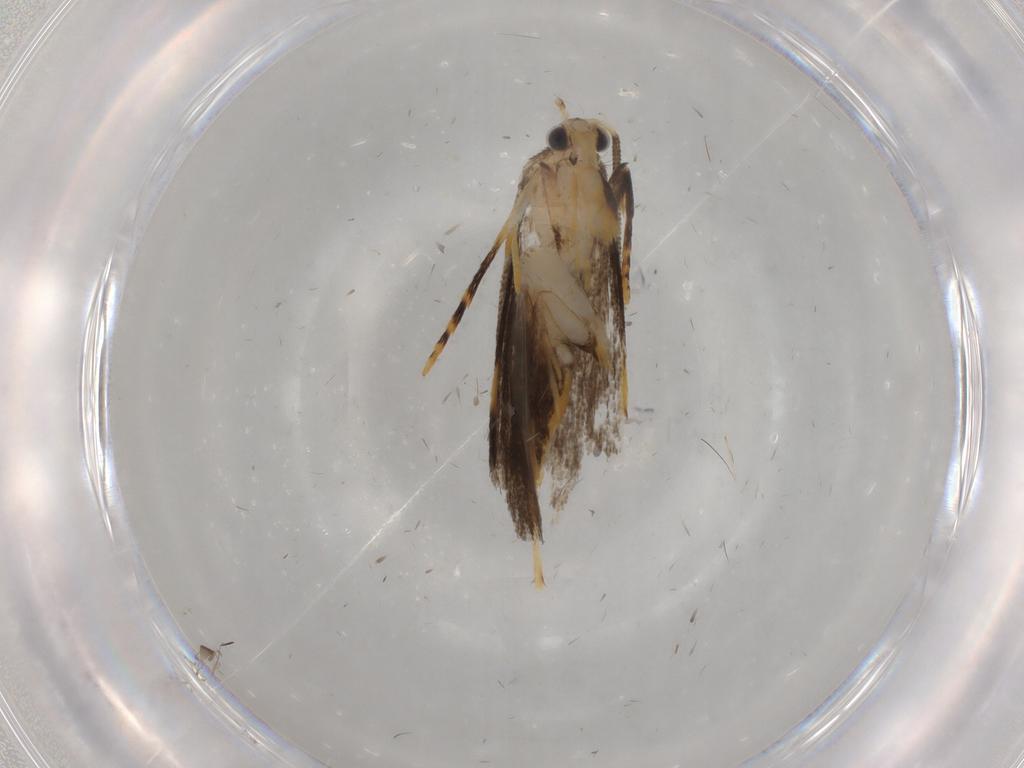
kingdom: Animalia
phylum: Arthropoda
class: Insecta
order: Lepidoptera
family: Tineidae
